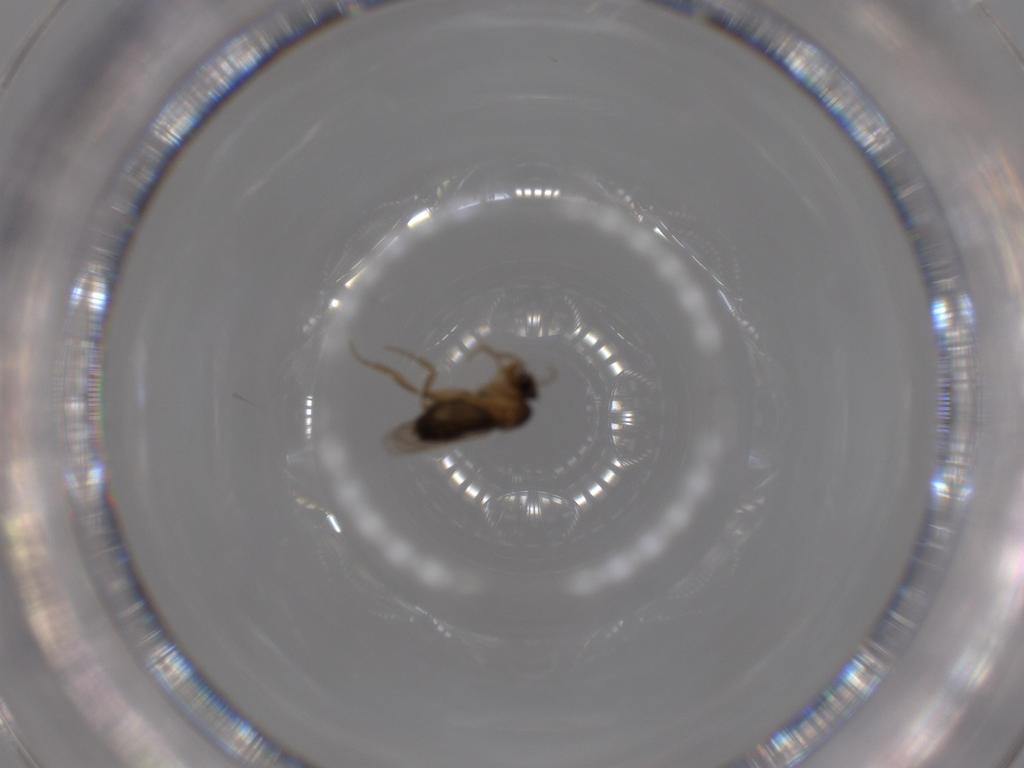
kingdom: Animalia
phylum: Arthropoda
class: Insecta
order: Diptera
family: Phoridae
